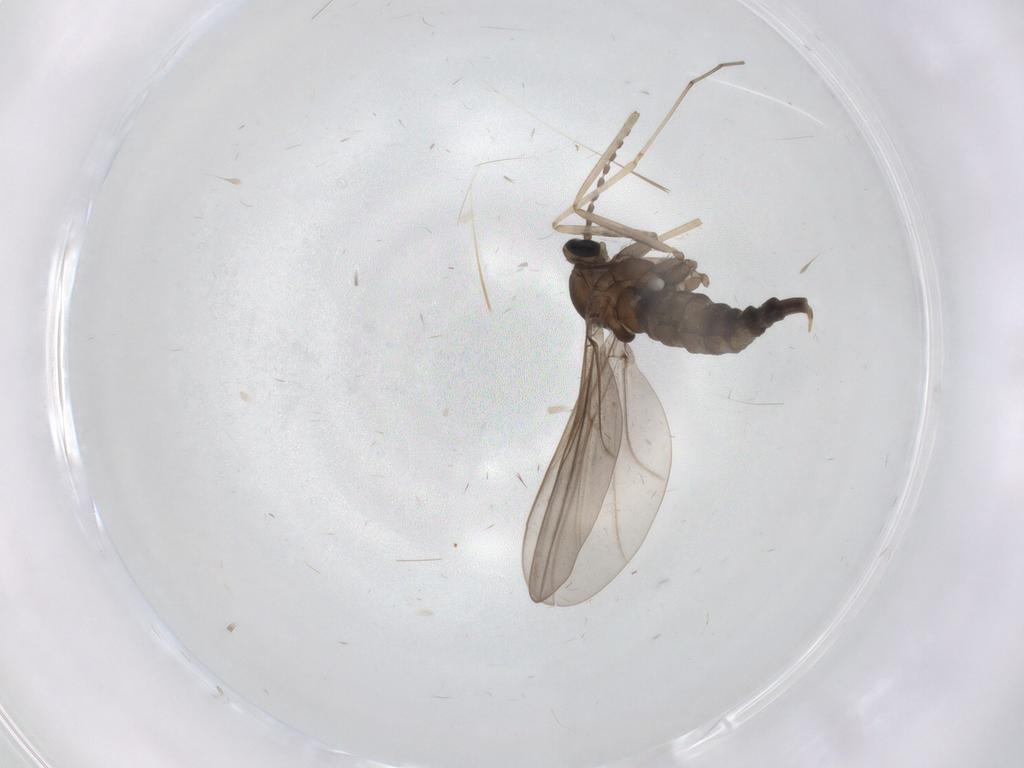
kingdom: Animalia
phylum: Arthropoda
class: Insecta
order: Diptera
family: Cecidomyiidae
